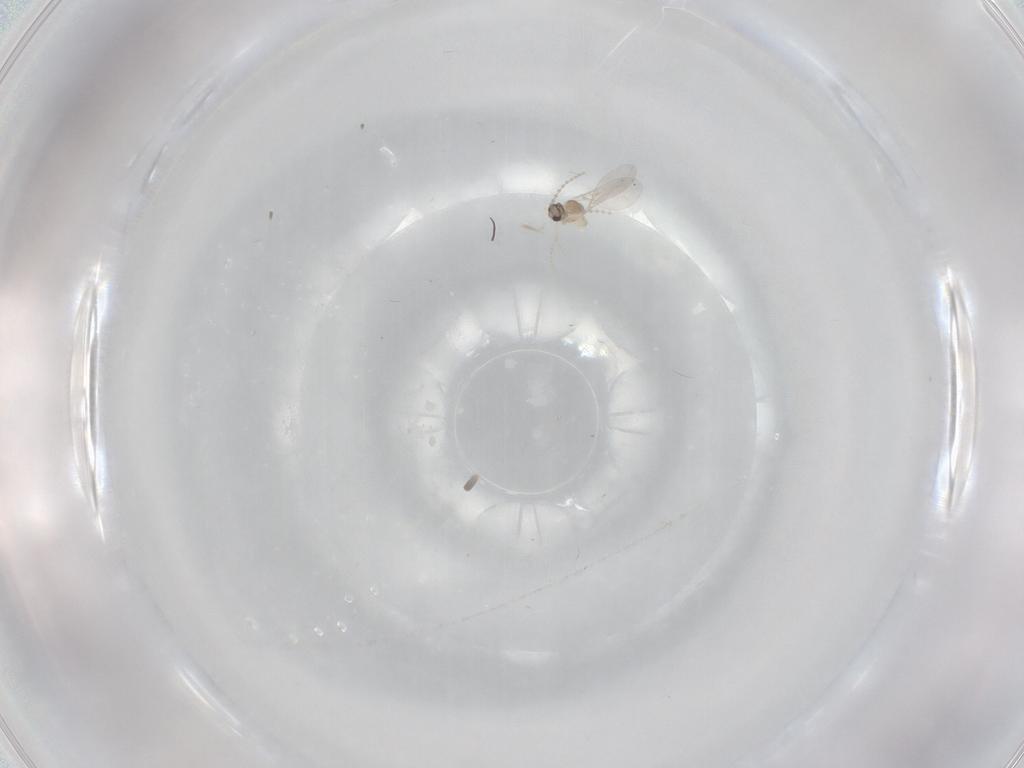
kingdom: Animalia
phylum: Arthropoda
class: Insecta
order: Diptera
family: Cecidomyiidae
